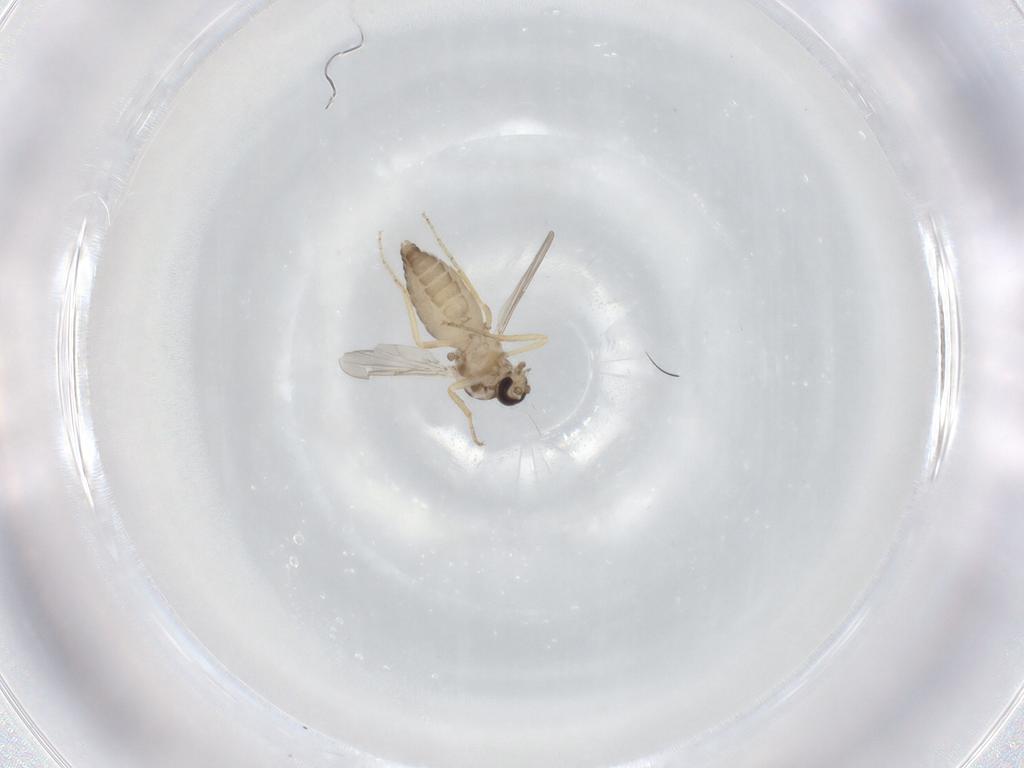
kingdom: Animalia
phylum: Arthropoda
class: Insecta
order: Diptera
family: Ceratopogonidae
